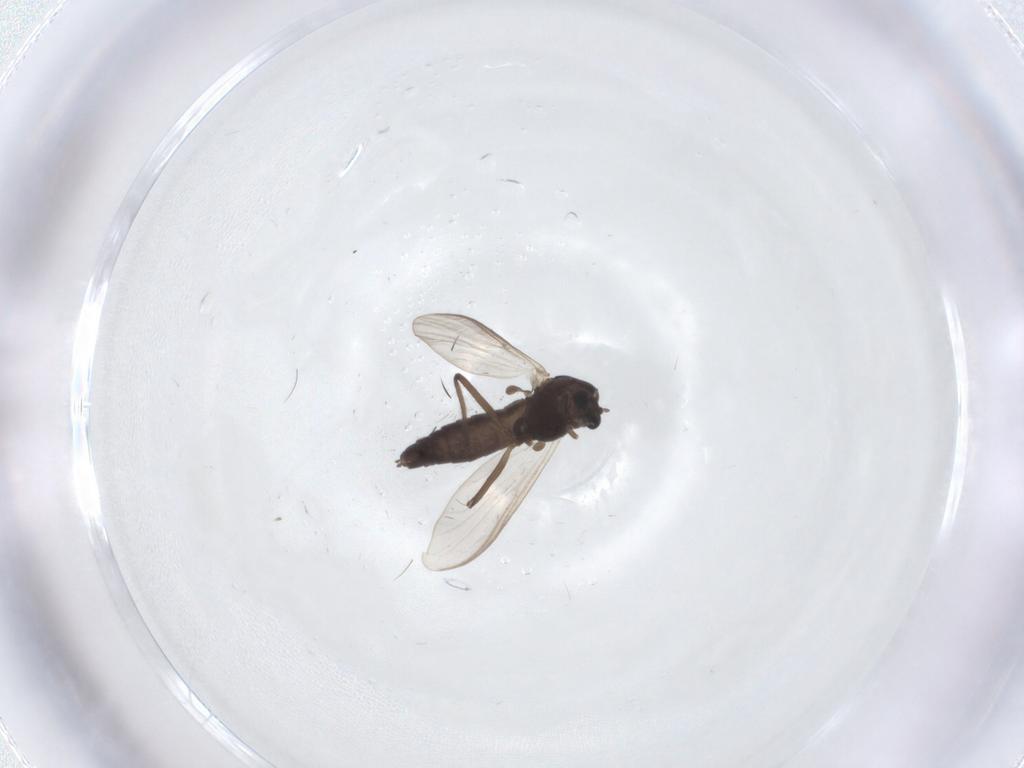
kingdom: Animalia
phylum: Arthropoda
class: Insecta
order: Diptera
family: Chironomidae
